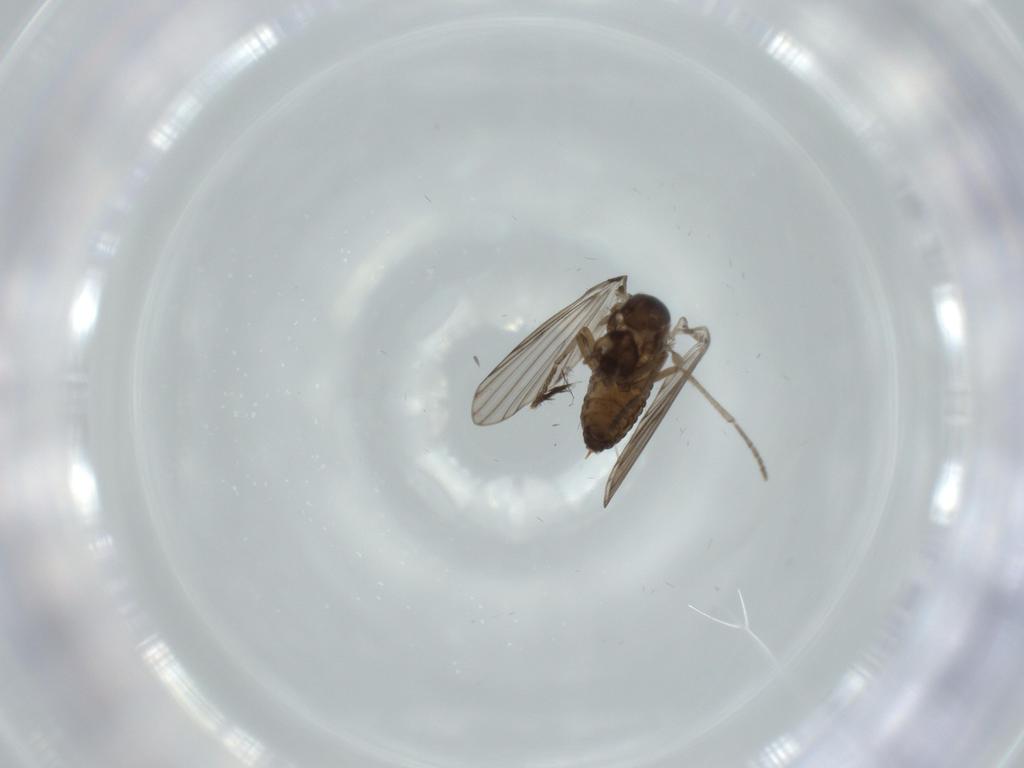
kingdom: Animalia
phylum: Arthropoda
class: Insecta
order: Diptera
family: Psychodidae
